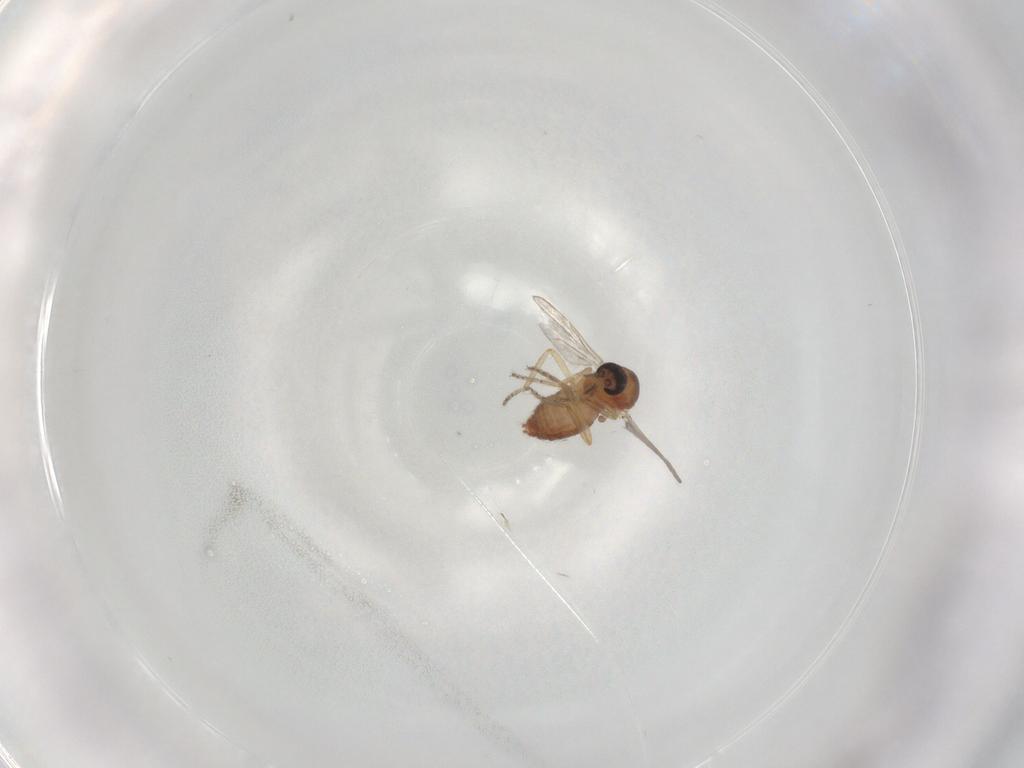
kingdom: Animalia
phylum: Arthropoda
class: Insecta
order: Diptera
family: Ceratopogonidae
